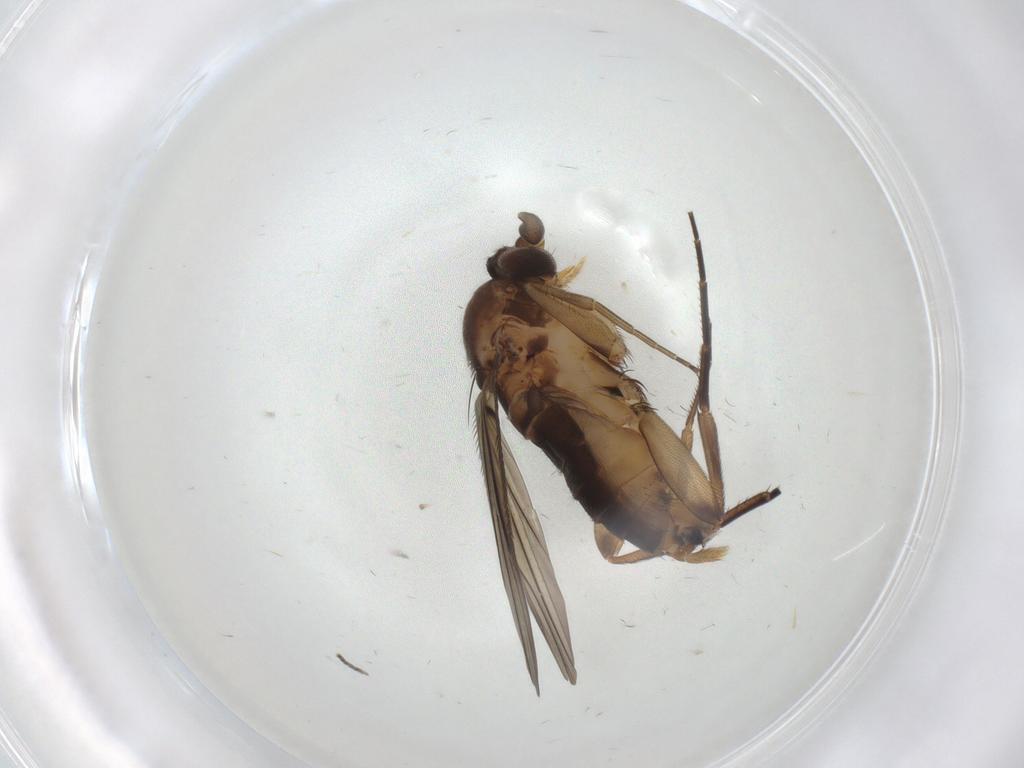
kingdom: Animalia
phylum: Arthropoda
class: Insecta
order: Diptera
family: Phoridae
